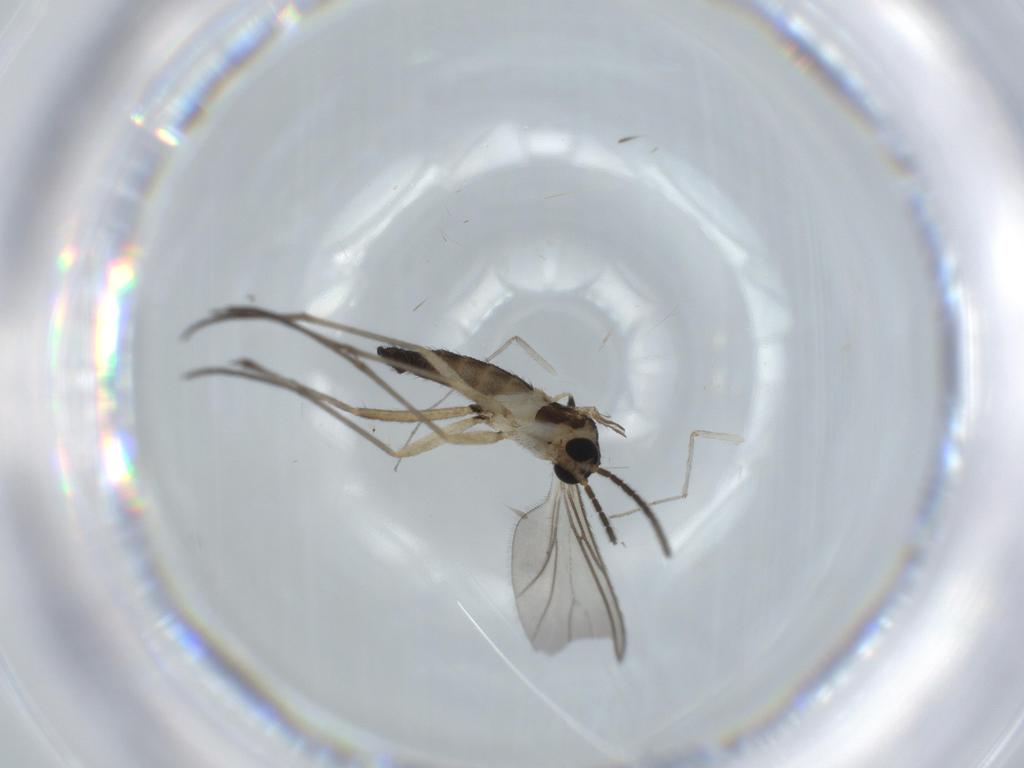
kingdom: Animalia
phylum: Arthropoda
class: Insecta
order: Diptera
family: Sciaridae
